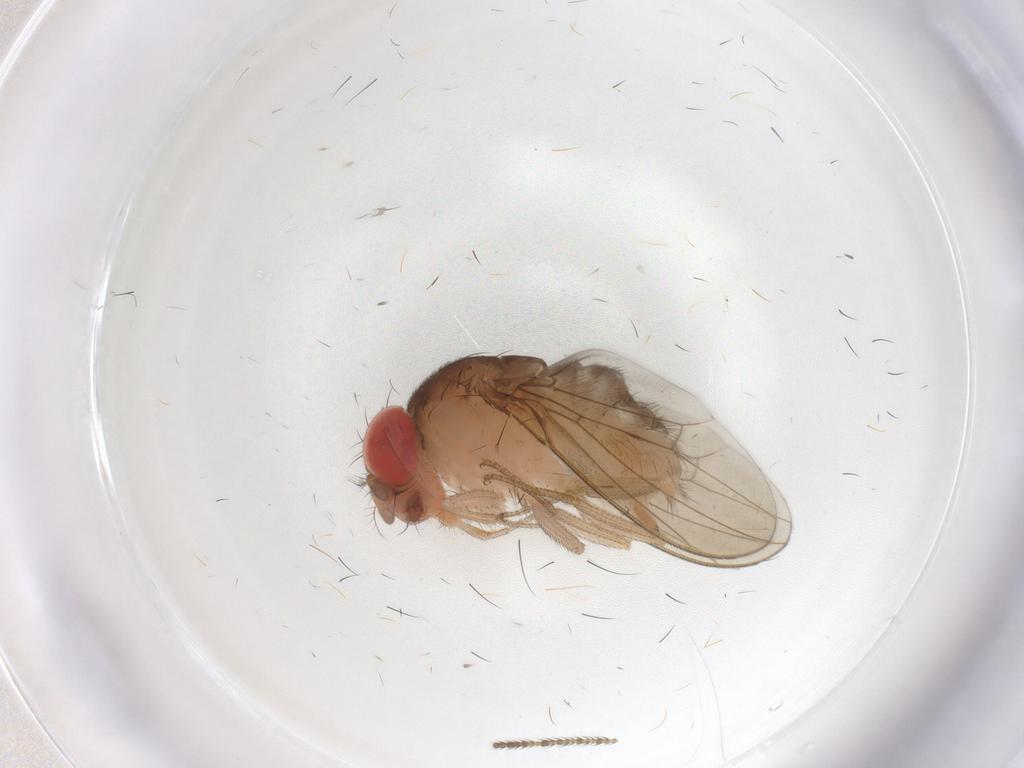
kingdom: Animalia
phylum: Arthropoda
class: Insecta
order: Diptera
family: Drosophilidae
